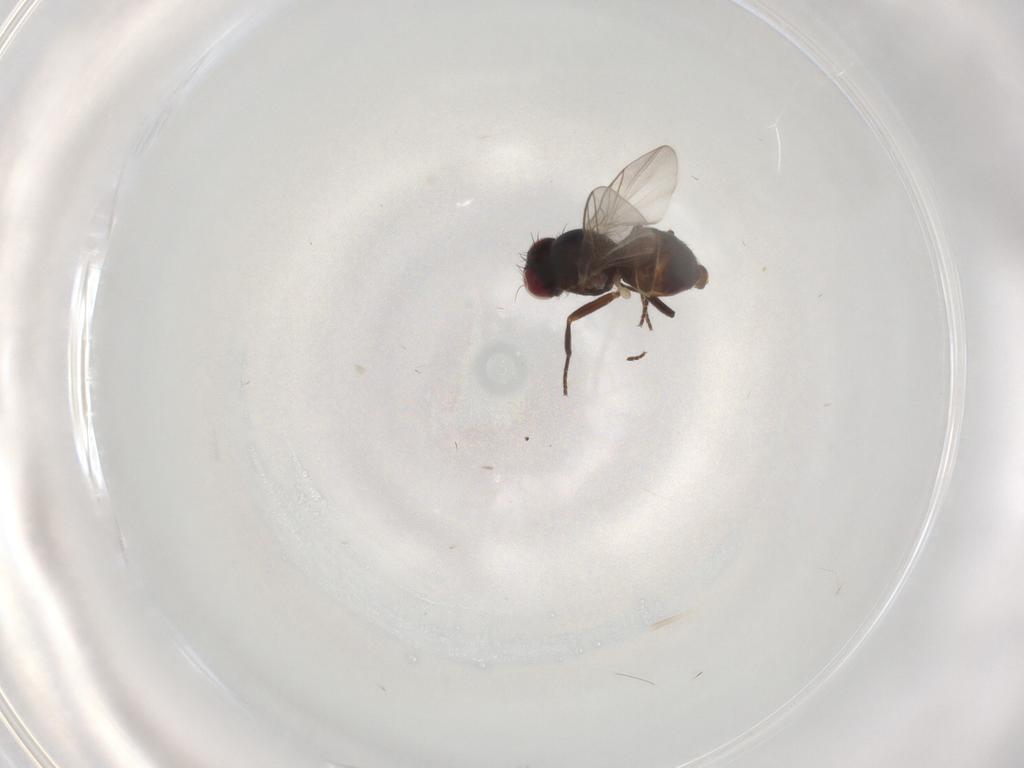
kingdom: Animalia
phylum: Arthropoda
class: Insecta
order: Diptera
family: Agromyzidae
